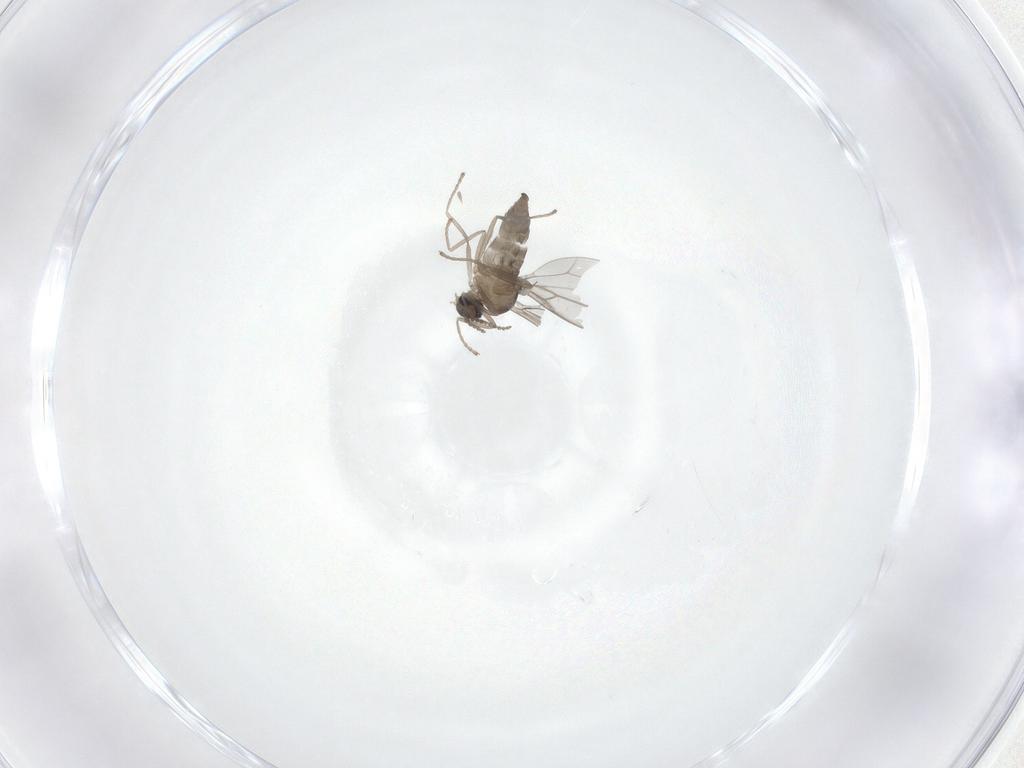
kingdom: Animalia
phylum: Arthropoda
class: Insecta
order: Diptera
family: Cecidomyiidae
